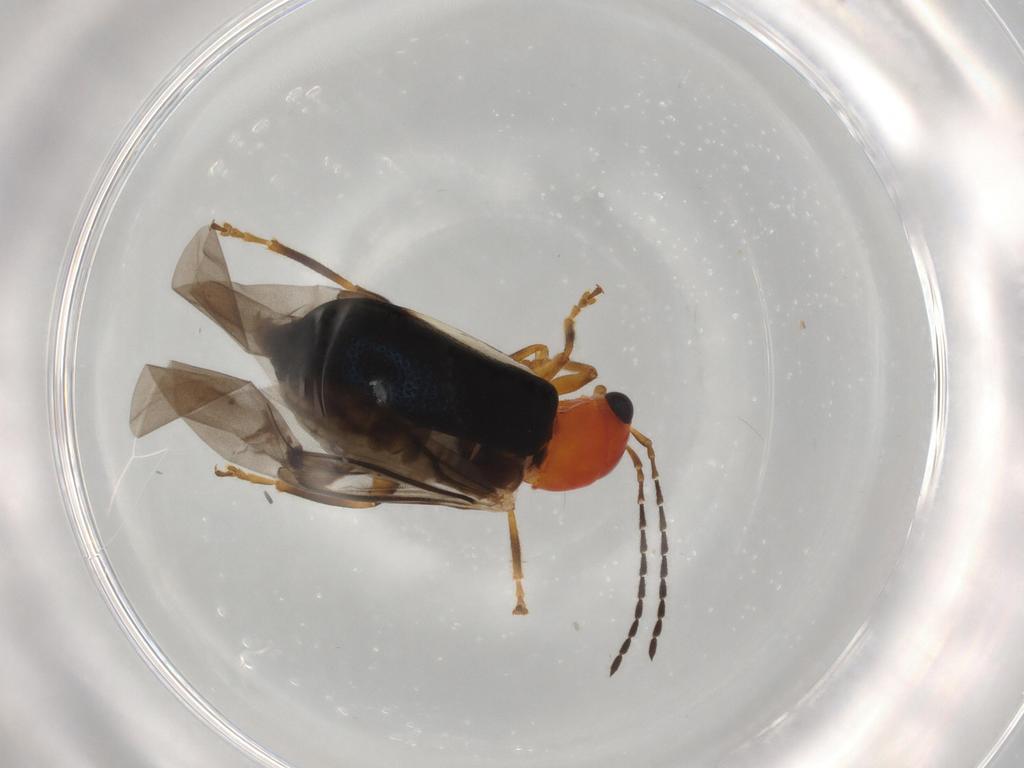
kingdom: Animalia
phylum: Arthropoda
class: Insecta
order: Coleoptera
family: Chrysomelidae
